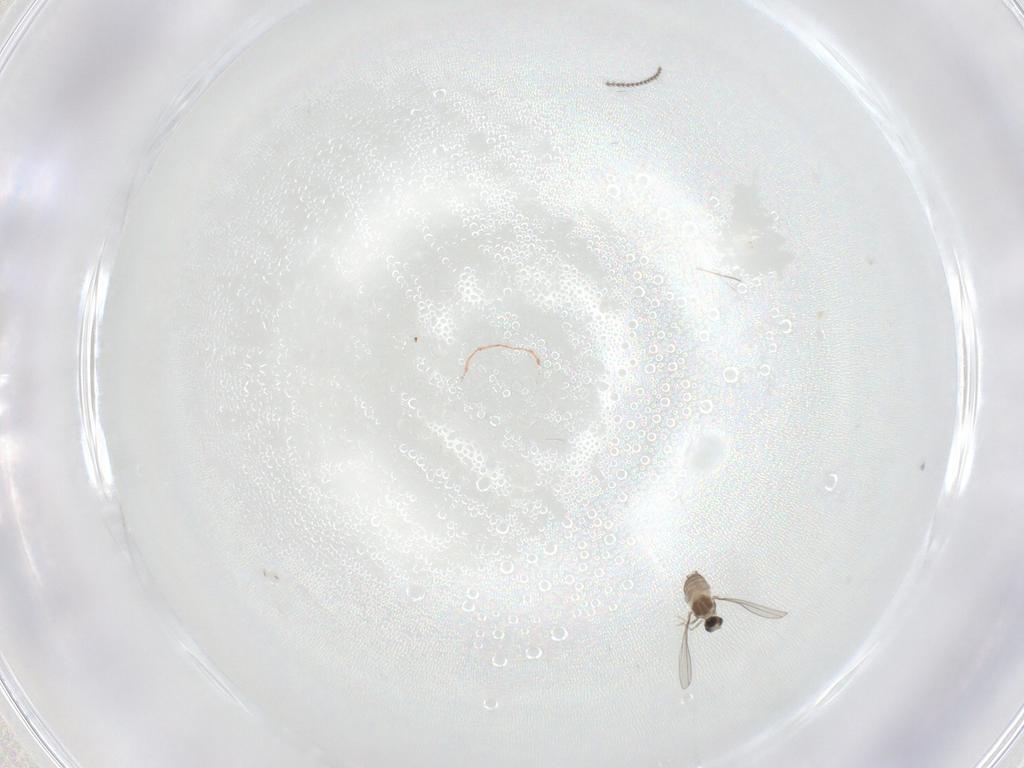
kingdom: Animalia
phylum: Arthropoda
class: Insecta
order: Diptera
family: Cecidomyiidae
